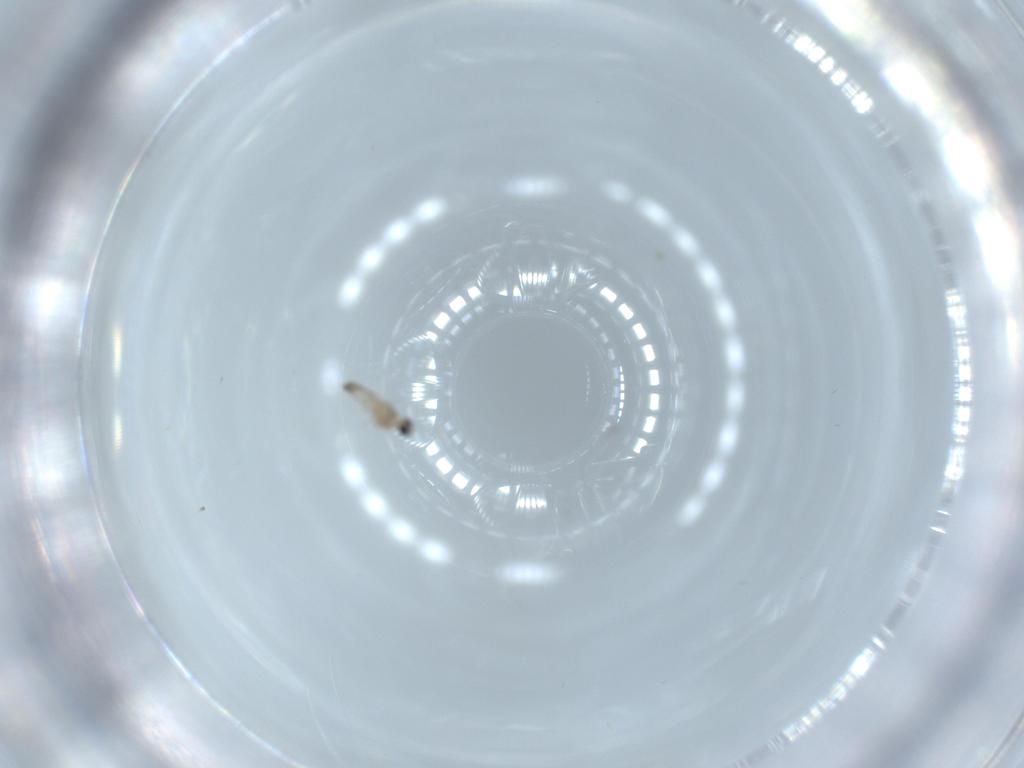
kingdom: Animalia
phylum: Arthropoda
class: Insecta
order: Diptera
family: Cecidomyiidae
